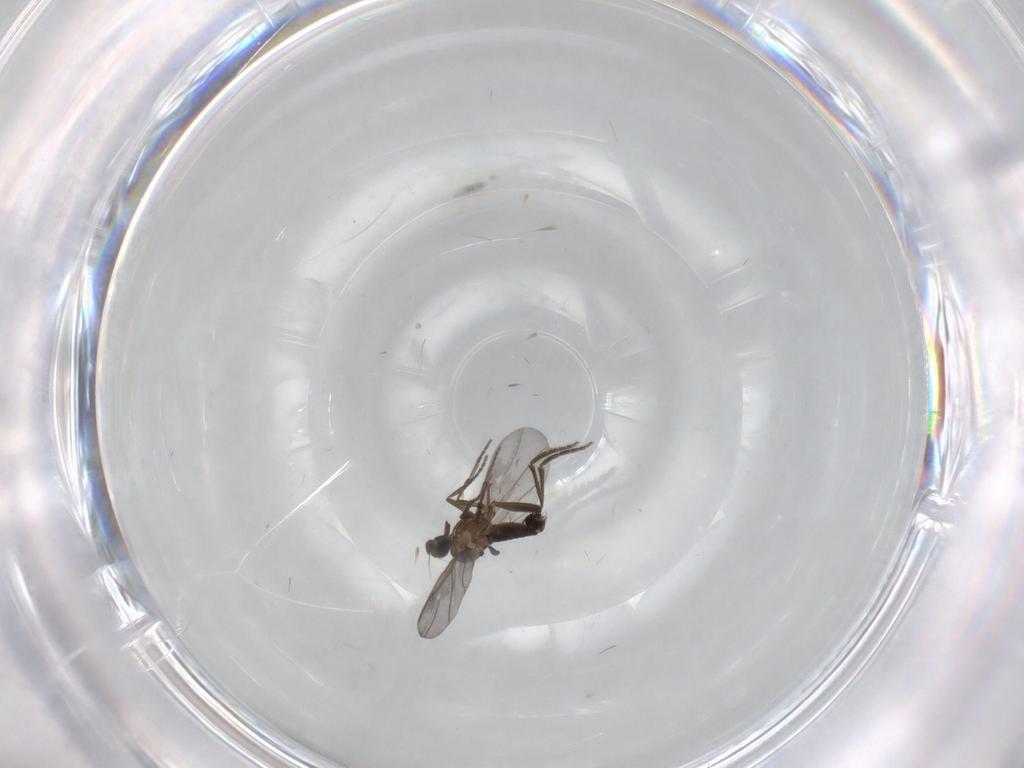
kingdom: Animalia
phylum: Arthropoda
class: Insecta
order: Diptera
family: Phoridae
